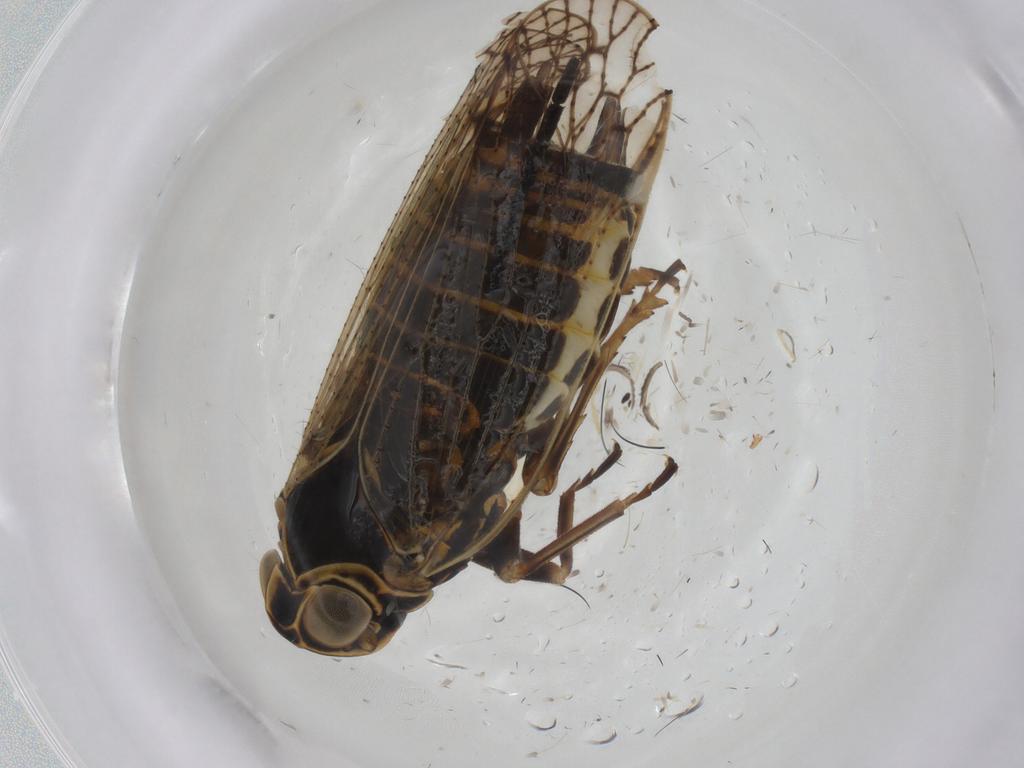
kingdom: Animalia
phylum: Arthropoda
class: Insecta
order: Hemiptera
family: Cixiidae
